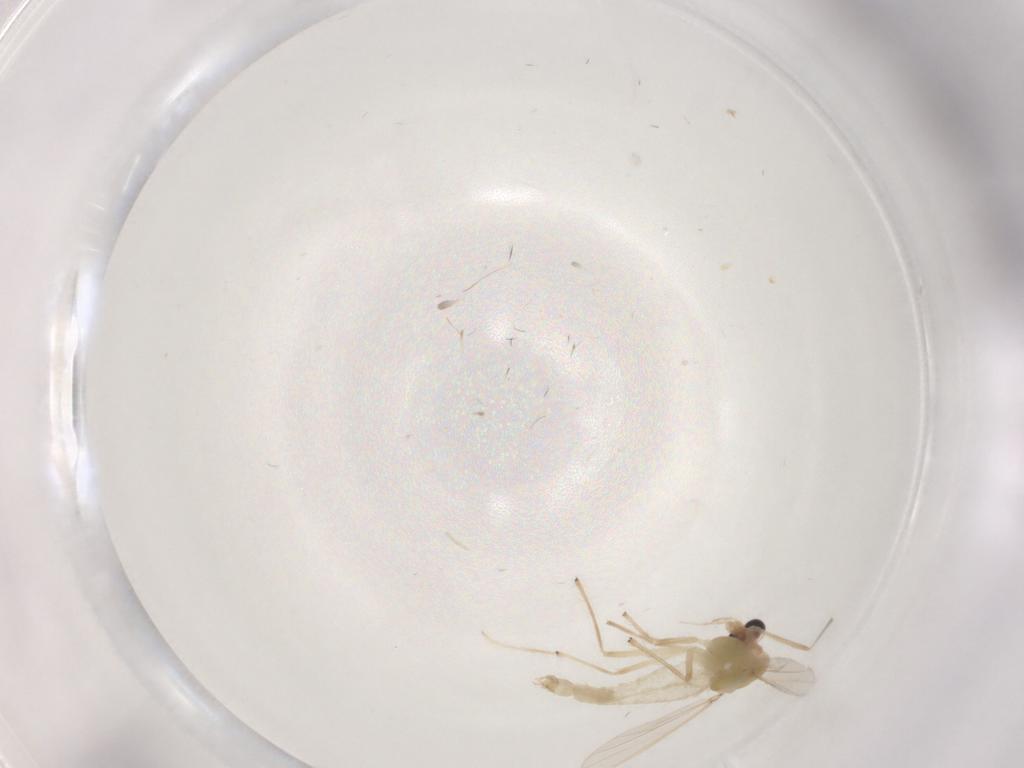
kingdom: Animalia
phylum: Arthropoda
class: Insecta
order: Diptera
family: Chironomidae
